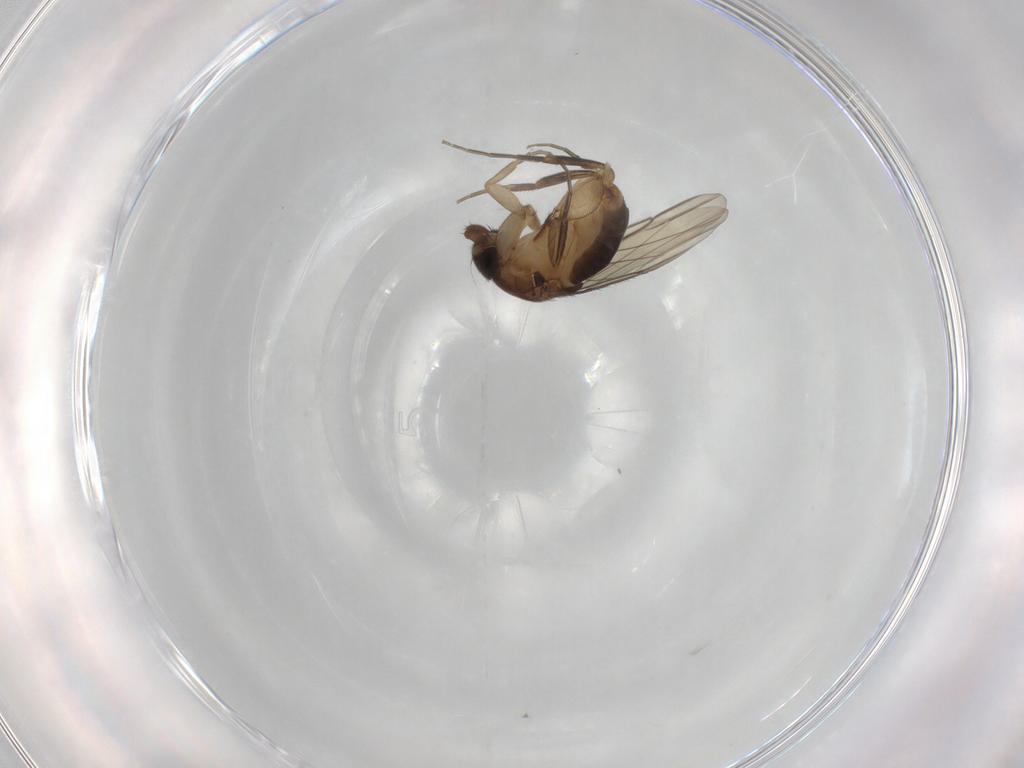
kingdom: Animalia
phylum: Arthropoda
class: Insecta
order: Diptera
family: Phoridae
